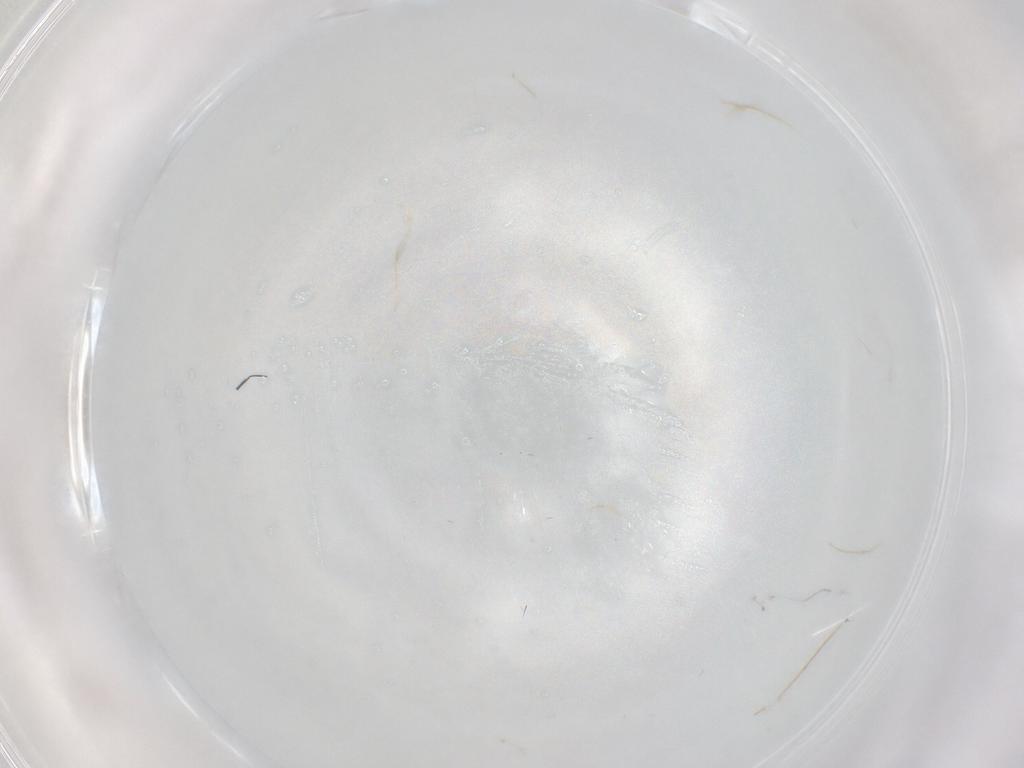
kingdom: Animalia
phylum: Arthropoda
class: Insecta
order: Hymenoptera
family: Diapriidae
